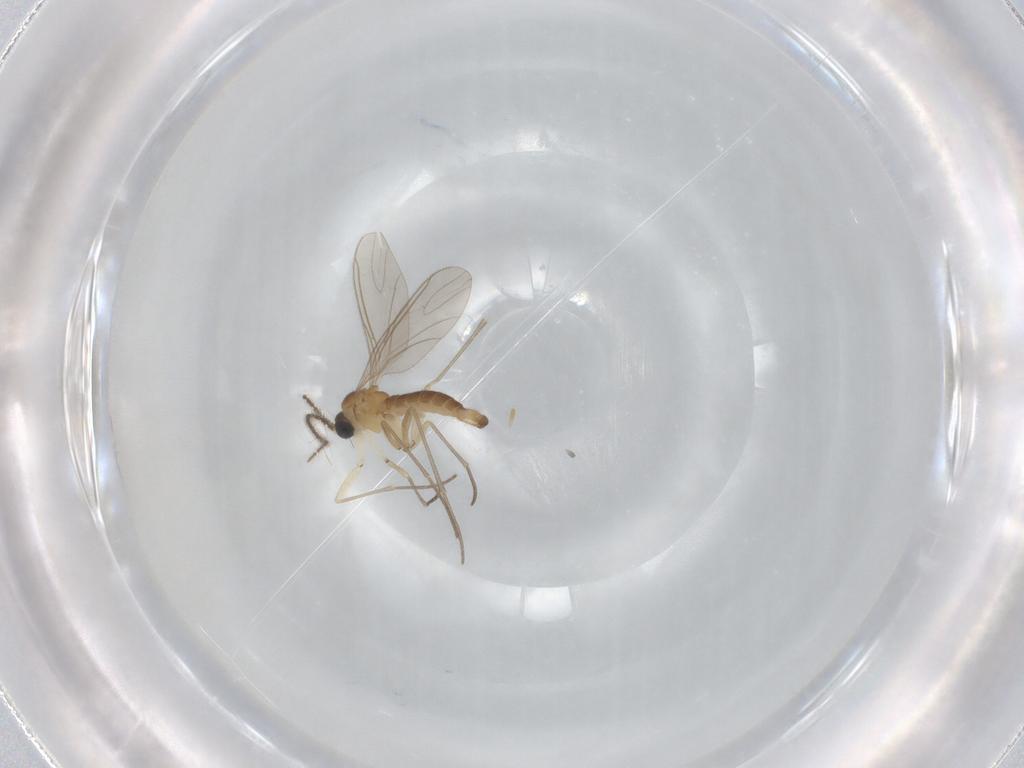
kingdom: Animalia
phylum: Arthropoda
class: Insecta
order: Diptera
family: Sciaridae
